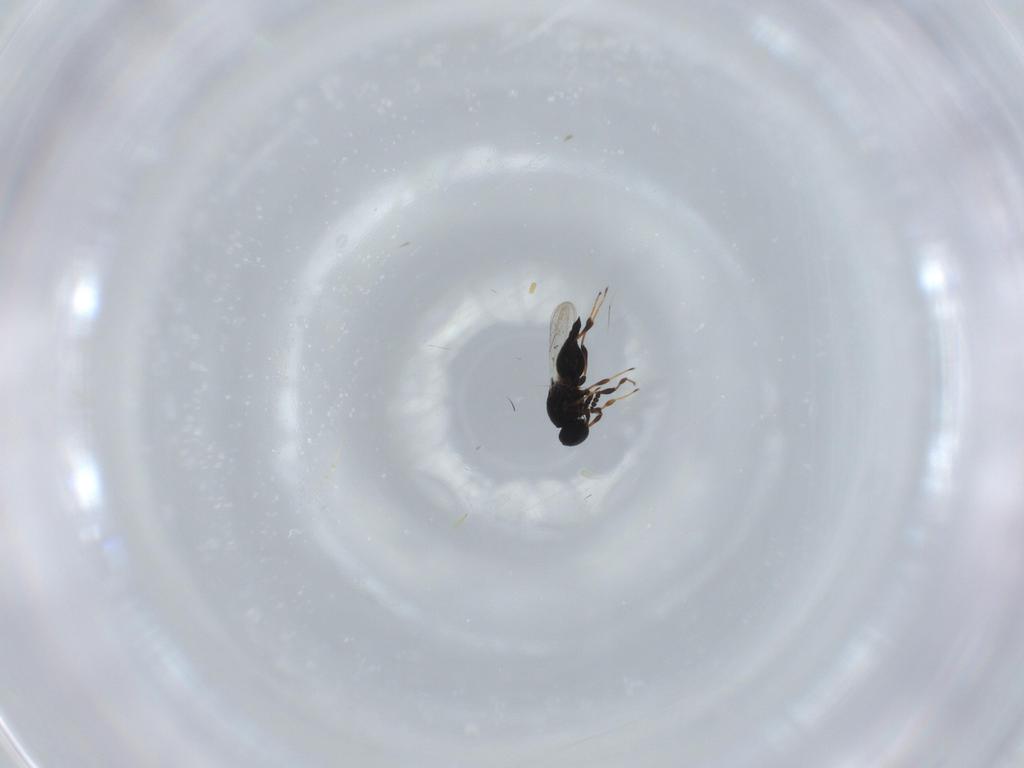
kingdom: Animalia
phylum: Arthropoda
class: Insecta
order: Hymenoptera
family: Platygastridae
